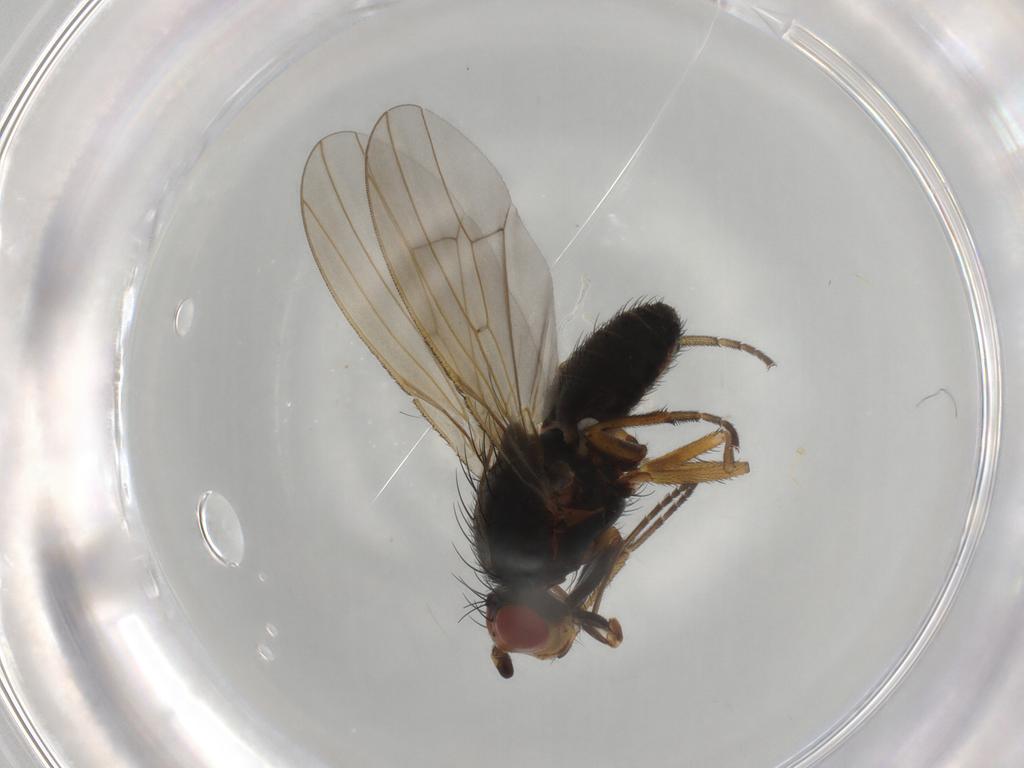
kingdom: Animalia
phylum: Arthropoda
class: Insecta
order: Diptera
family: Heleomyzidae
